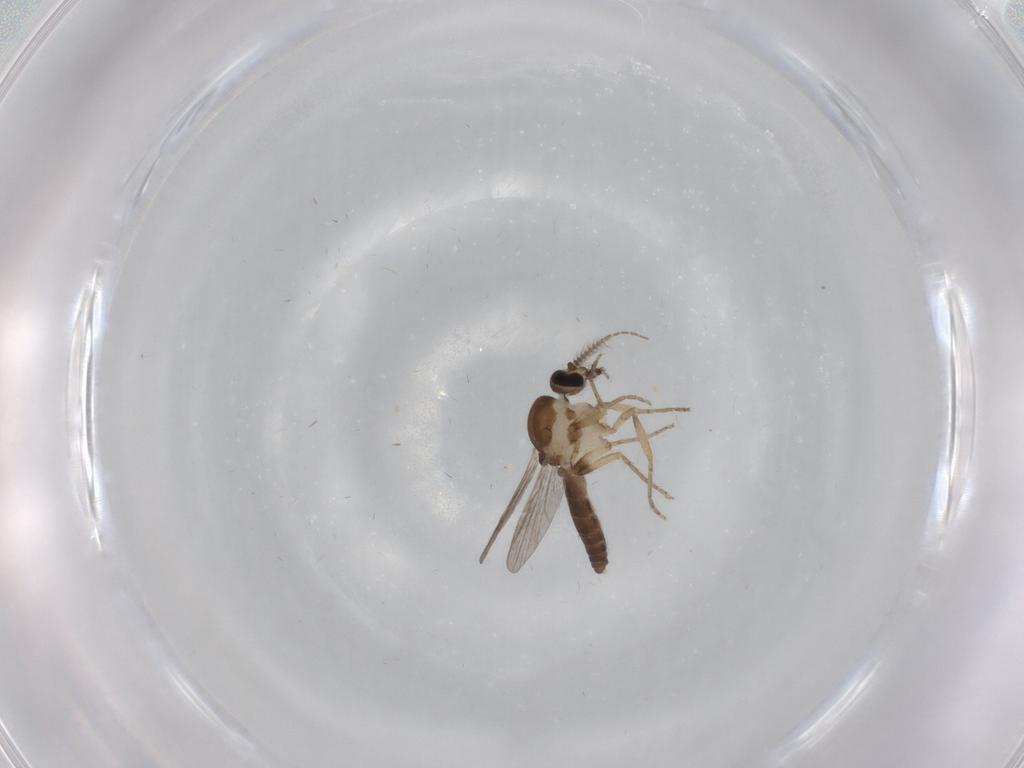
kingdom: Animalia
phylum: Arthropoda
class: Insecta
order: Diptera
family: Ceratopogonidae
